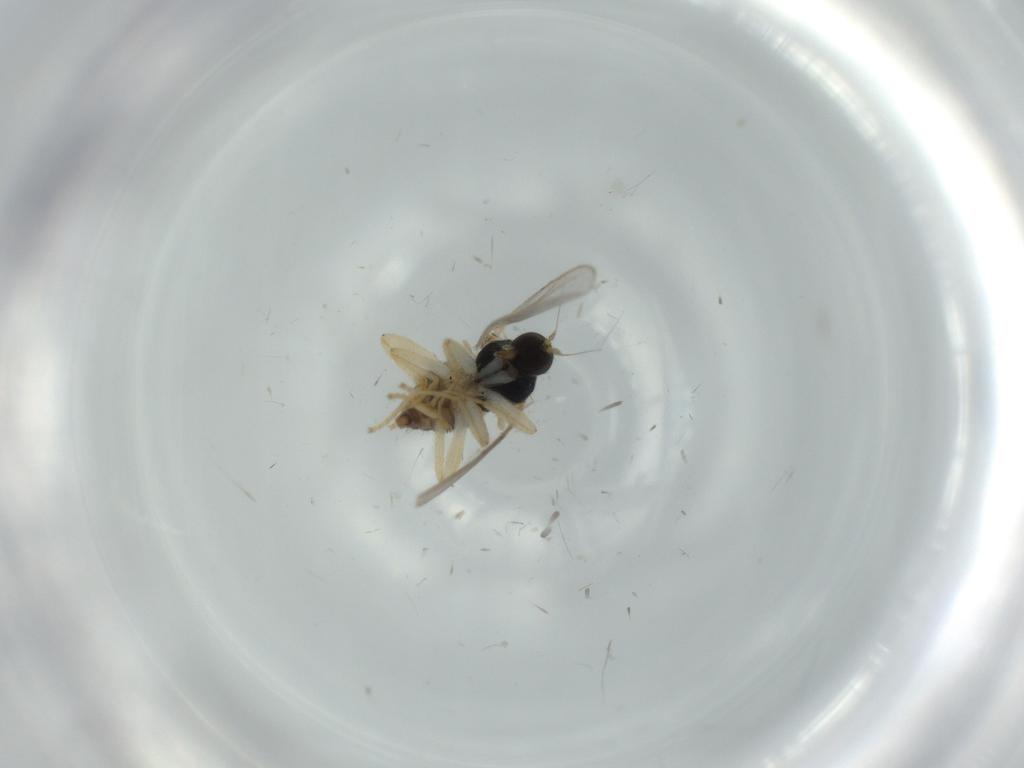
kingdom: Animalia
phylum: Arthropoda
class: Insecta
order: Diptera
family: Hybotidae
